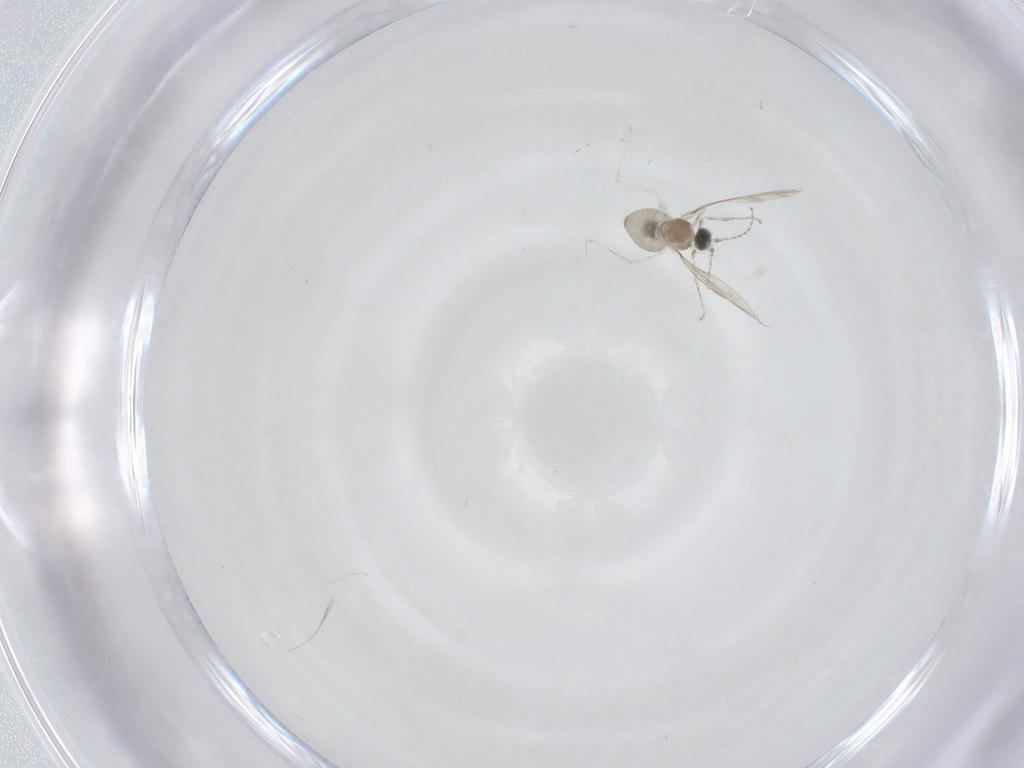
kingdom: Animalia
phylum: Arthropoda
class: Insecta
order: Diptera
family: Cecidomyiidae
